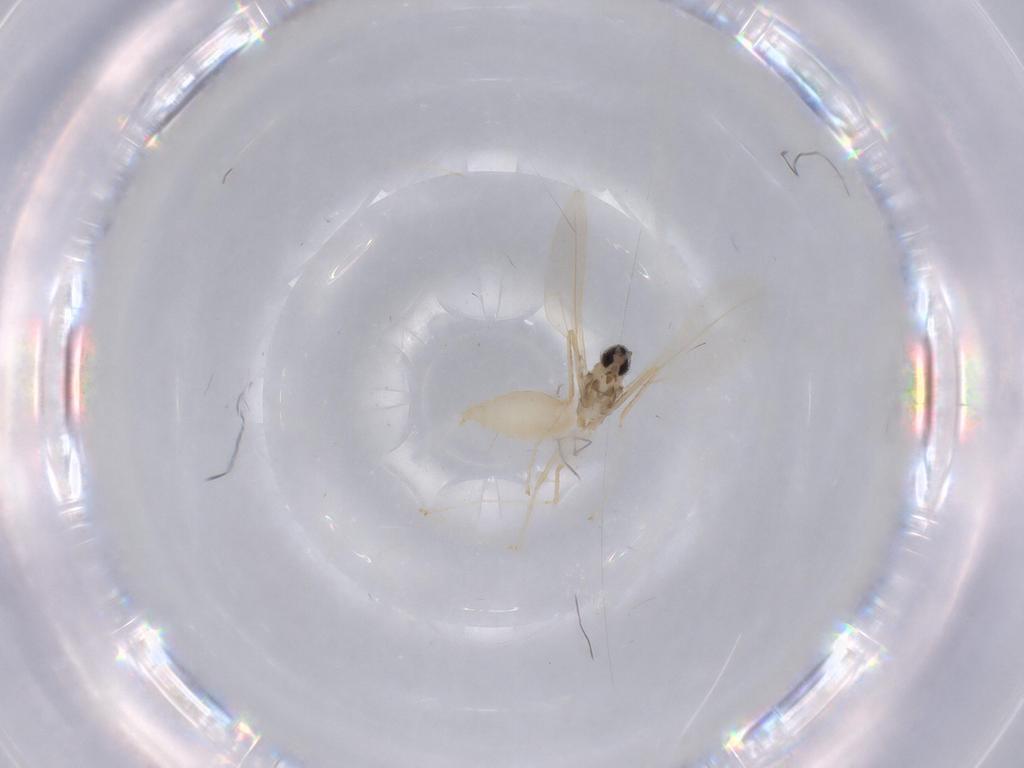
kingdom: Animalia
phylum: Arthropoda
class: Insecta
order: Diptera
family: Cecidomyiidae
